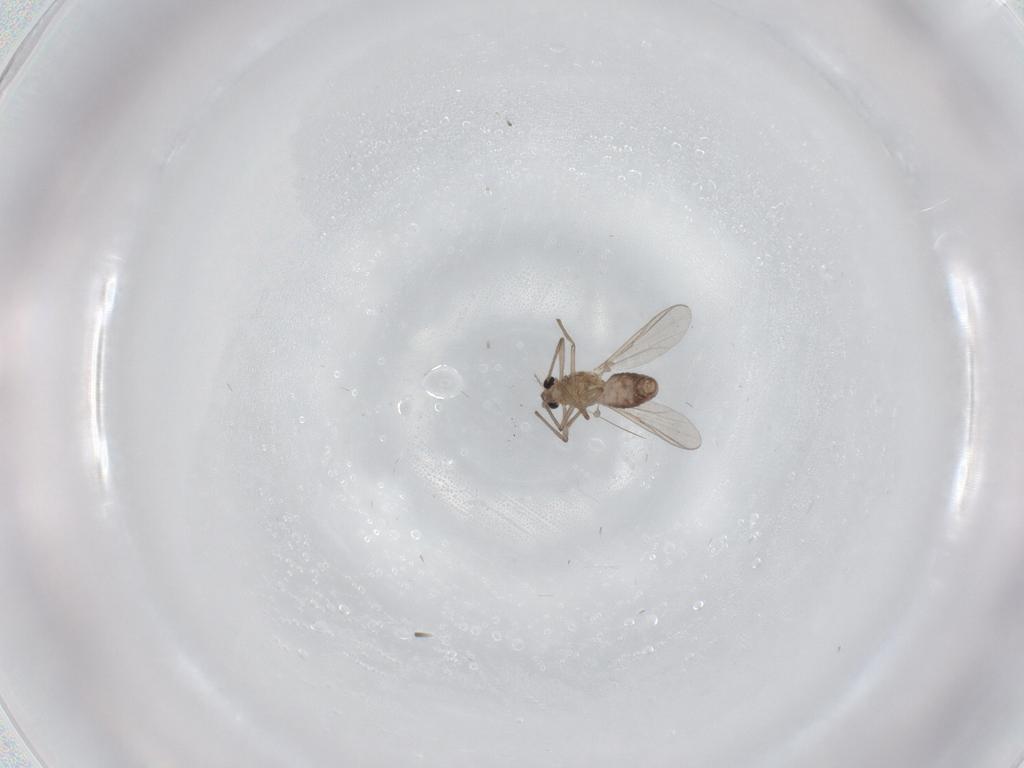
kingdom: Animalia
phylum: Arthropoda
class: Insecta
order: Diptera
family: Chironomidae
